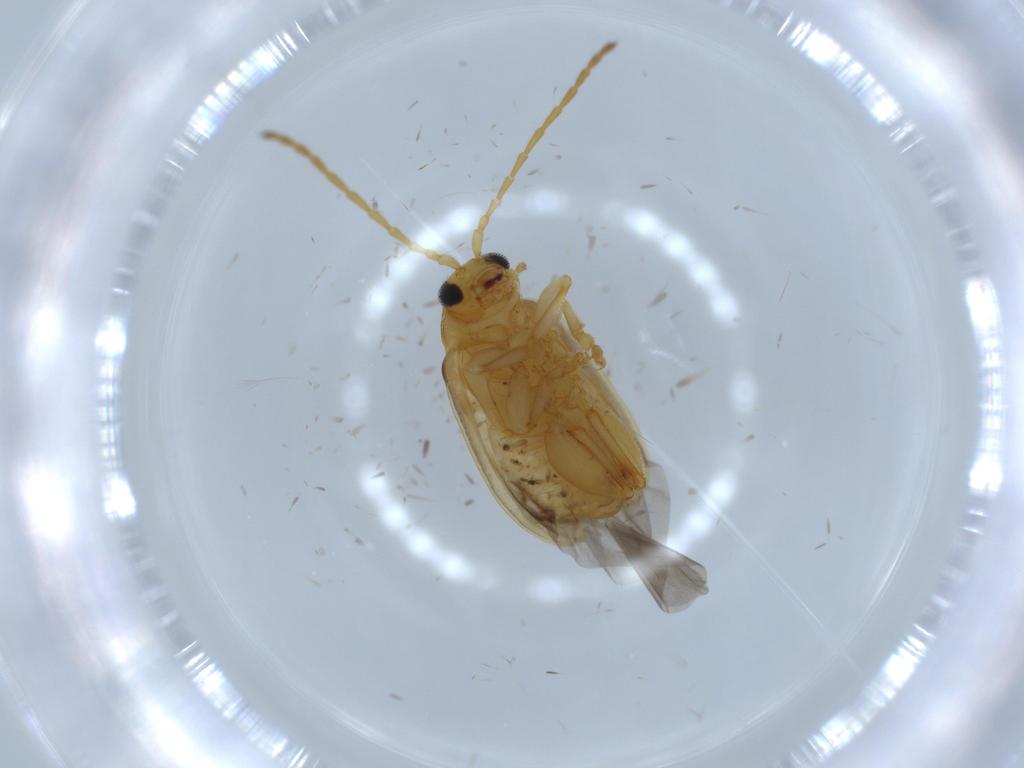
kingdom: Animalia
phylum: Arthropoda
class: Insecta
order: Coleoptera
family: Chrysomelidae
